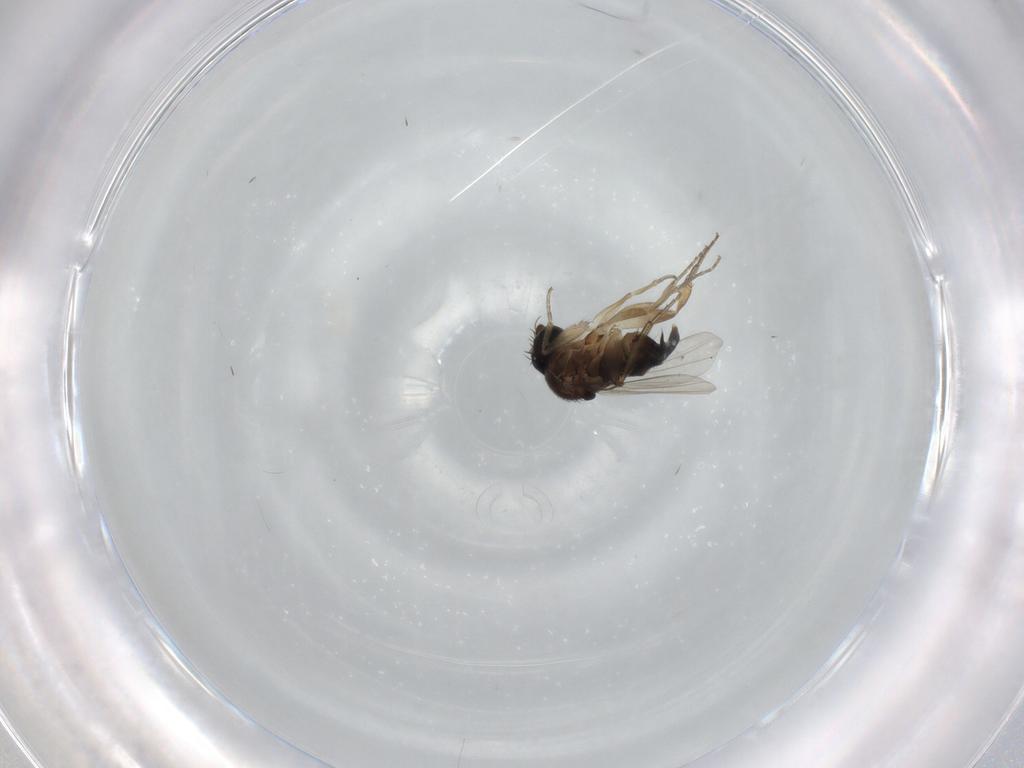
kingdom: Animalia
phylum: Arthropoda
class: Insecta
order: Diptera
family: Phoridae
